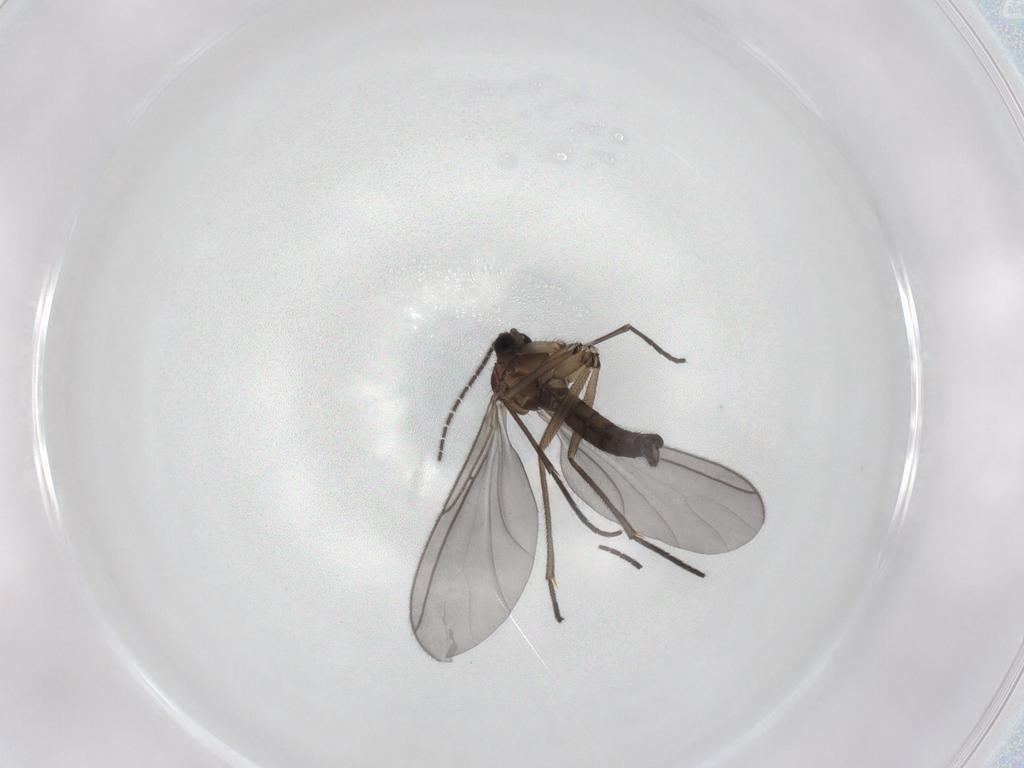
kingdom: Animalia
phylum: Arthropoda
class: Insecta
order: Diptera
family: Sciaridae
